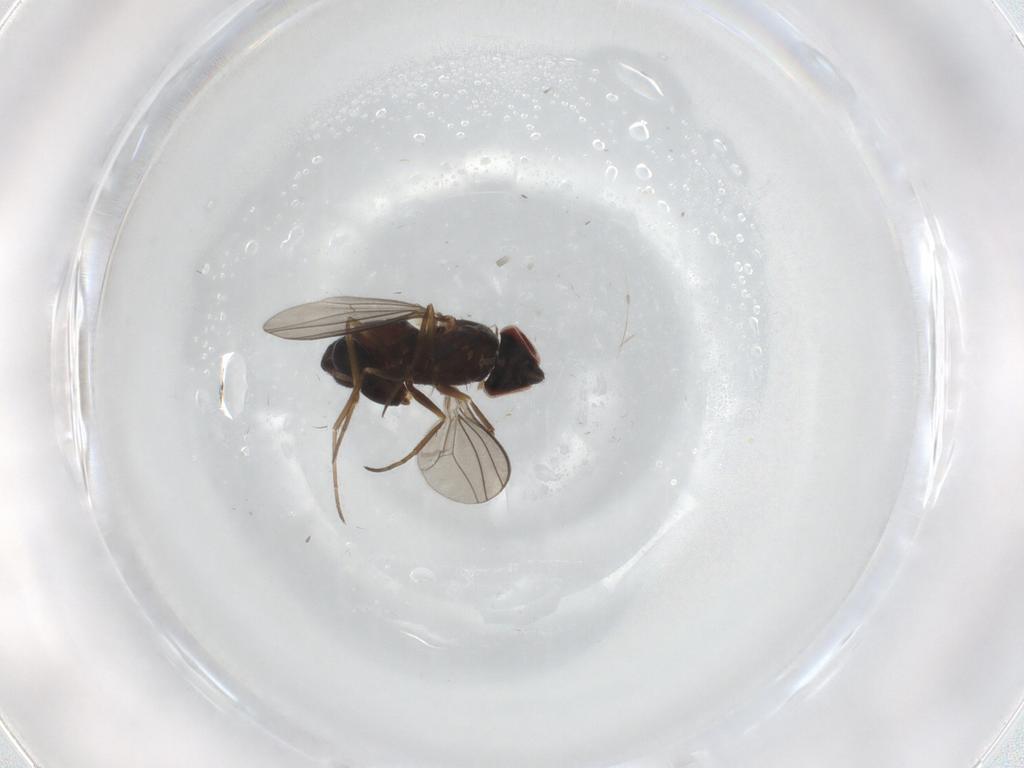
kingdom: Animalia
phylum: Arthropoda
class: Insecta
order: Diptera
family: Dolichopodidae
